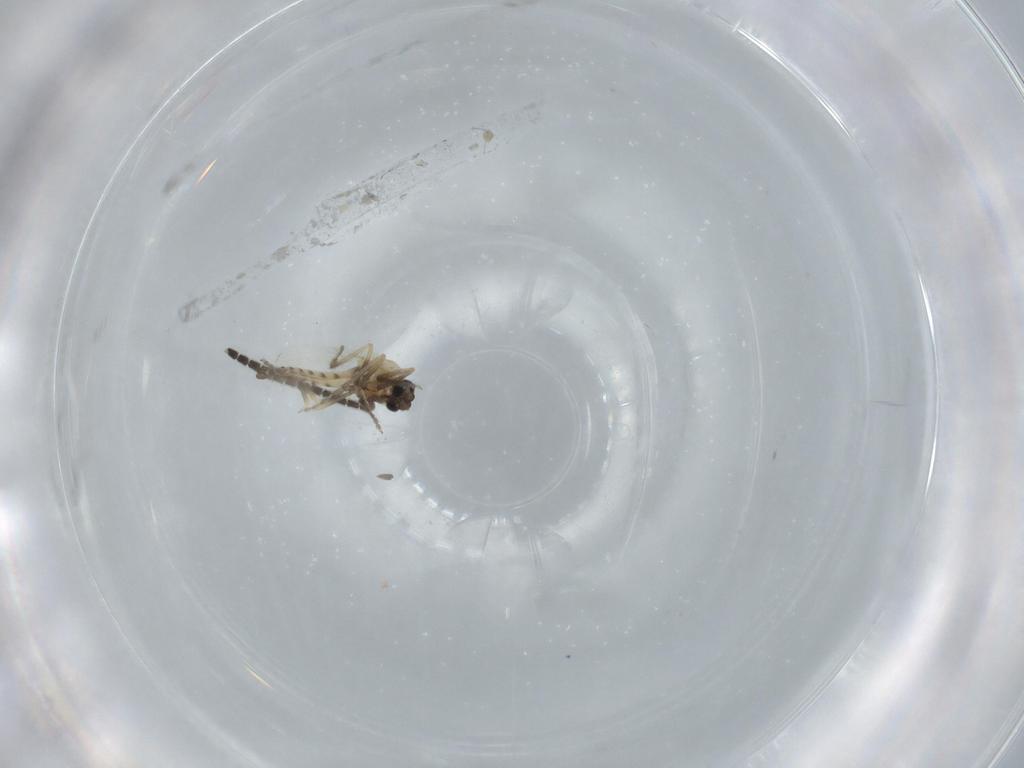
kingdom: Animalia
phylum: Arthropoda
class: Insecta
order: Diptera
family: Sciaridae
